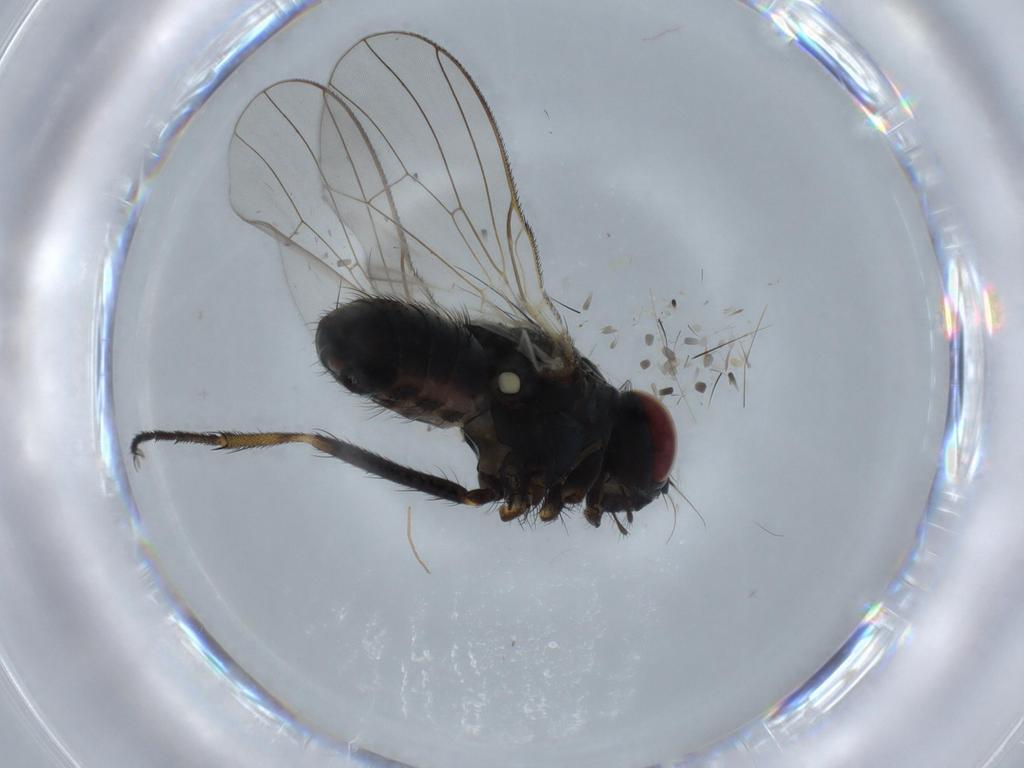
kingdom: Animalia
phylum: Arthropoda
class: Insecta
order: Diptera
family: Muscidae
